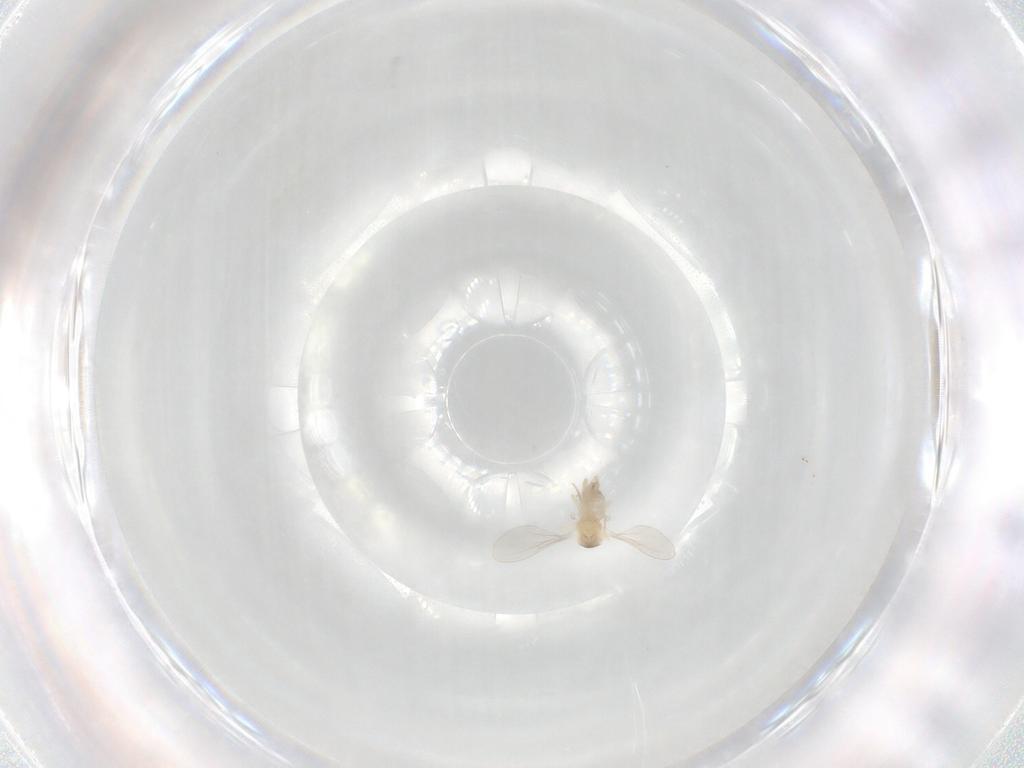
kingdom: Animalia
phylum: Arthropoda
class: Insecta
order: Diptera
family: Cecidomyiidae
